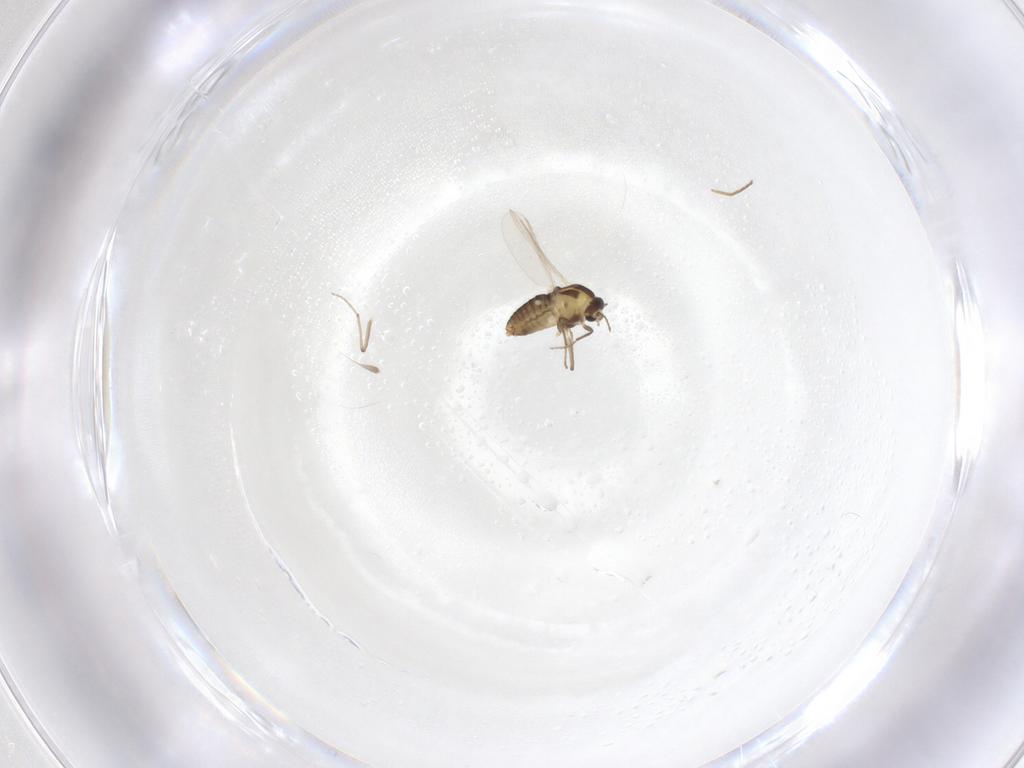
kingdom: Animalia
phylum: Arthropoda
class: Insecta
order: Diptera
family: Chironomidae
